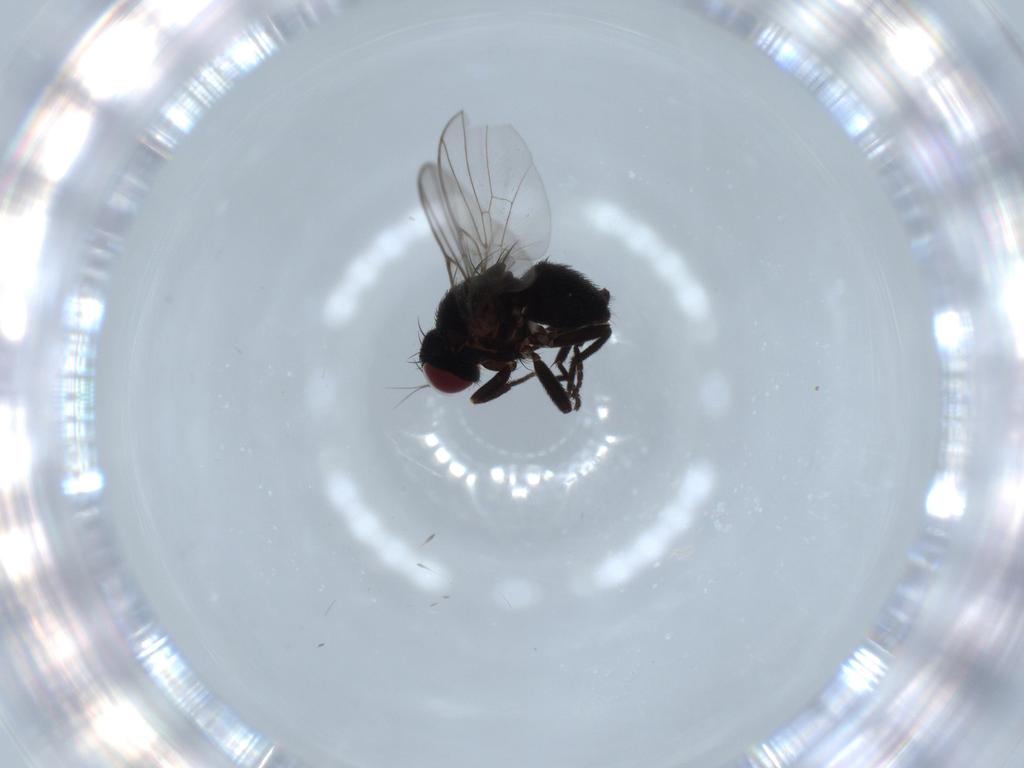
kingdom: Animalia
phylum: Arthropoda
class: Insecta
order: Diptera
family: Agromyzidae
